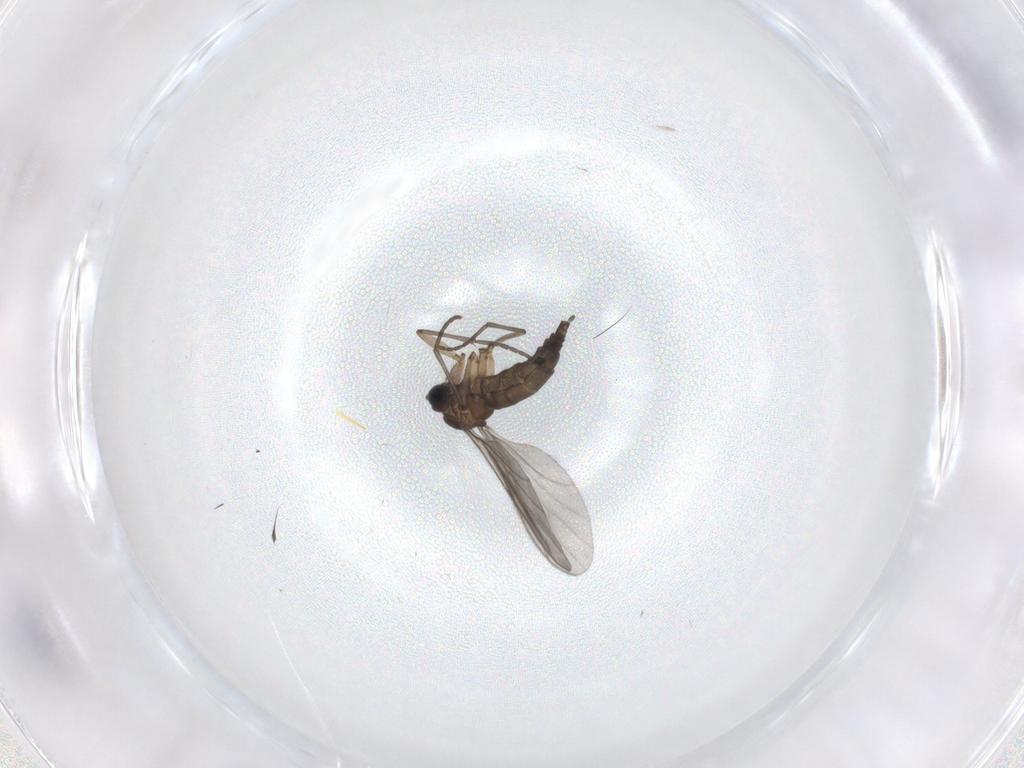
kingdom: Animalia
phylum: Arthropoda
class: Insecta
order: Diptera
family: Sciaridae
